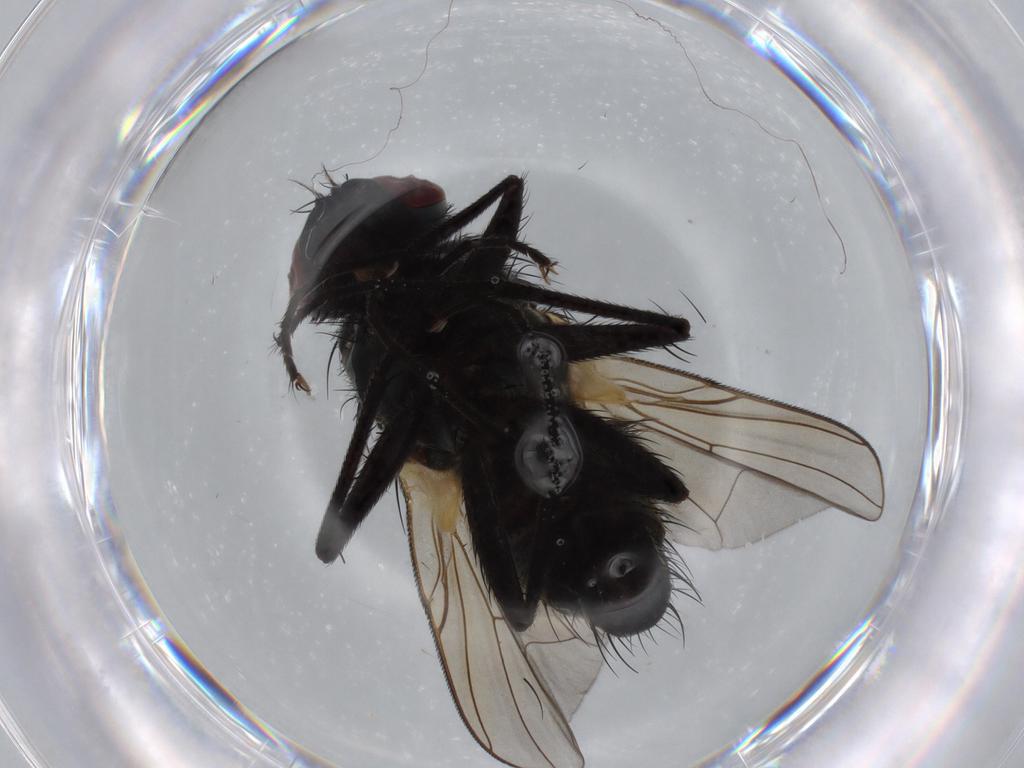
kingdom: Animalia
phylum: Arthropoda
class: Insecta
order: Diptera
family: Muscidae
